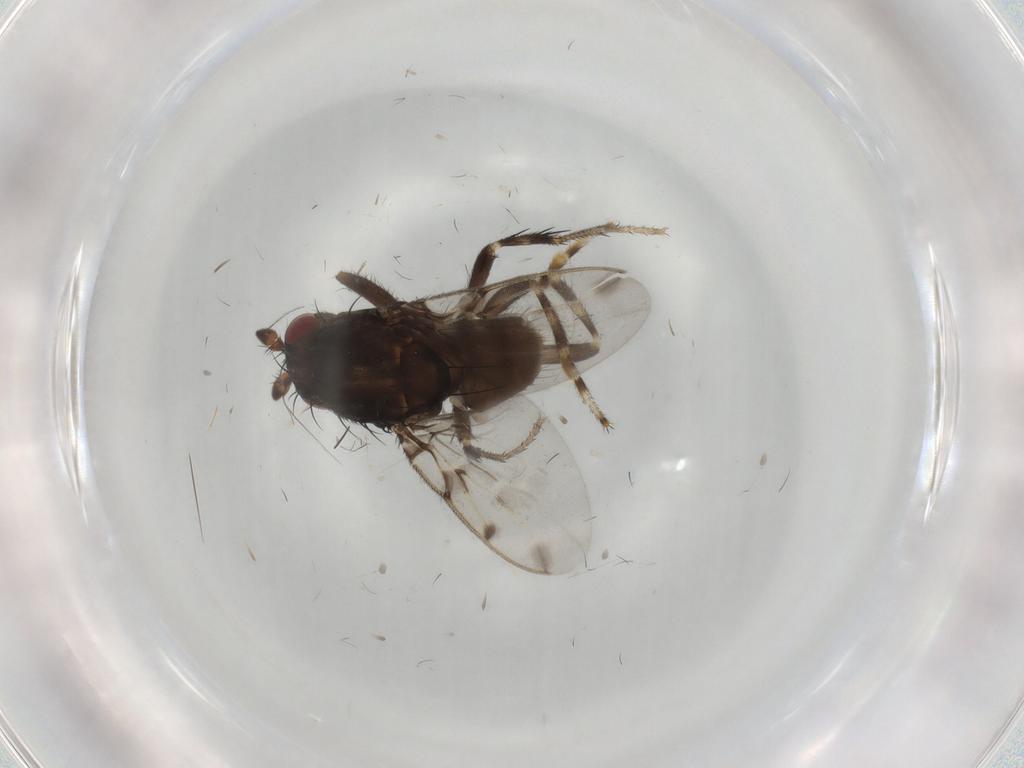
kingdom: Animalia
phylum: Arthropoda
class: Insecta
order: Diptera
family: Sphaeroceridae
